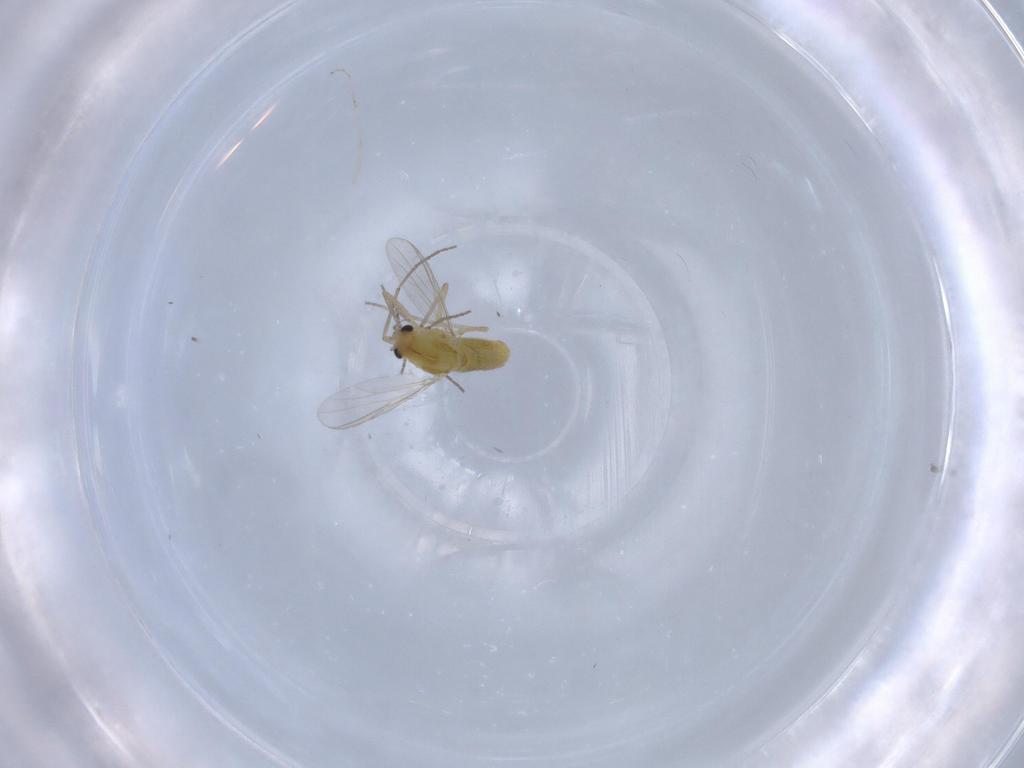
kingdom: Animalia
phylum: Arthropoda
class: Insecta
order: Diptera
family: Chironomidae
